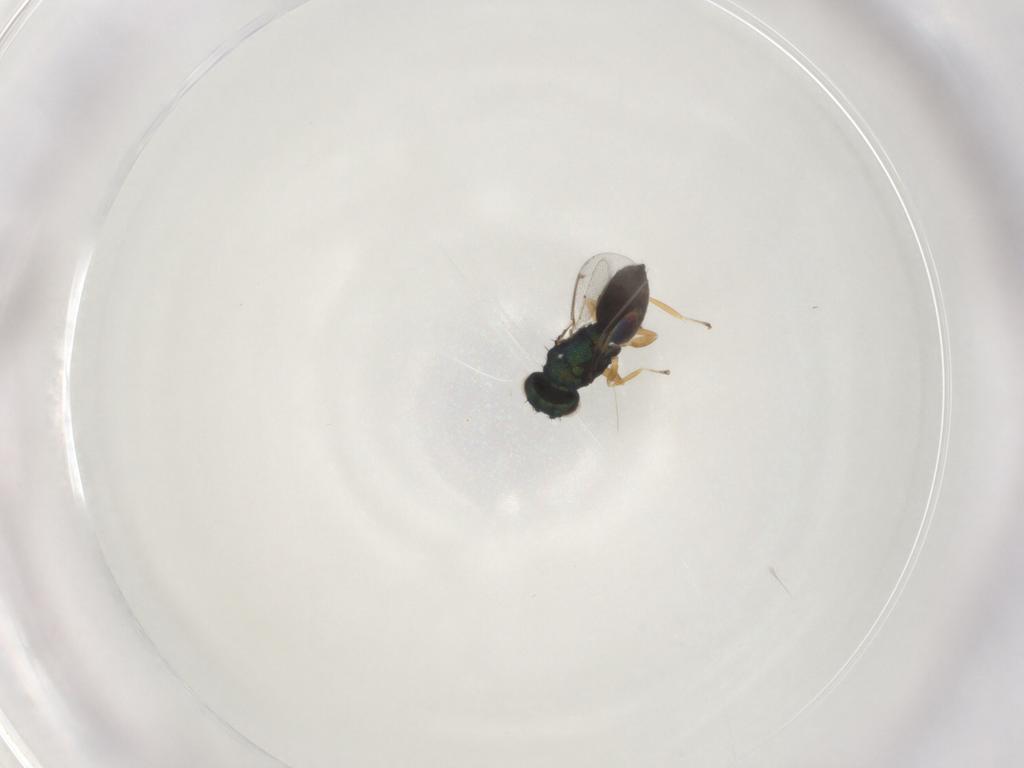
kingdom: Animalia
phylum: Arthropoda
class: Insecta
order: Hymenoptera
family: Eulophidae
